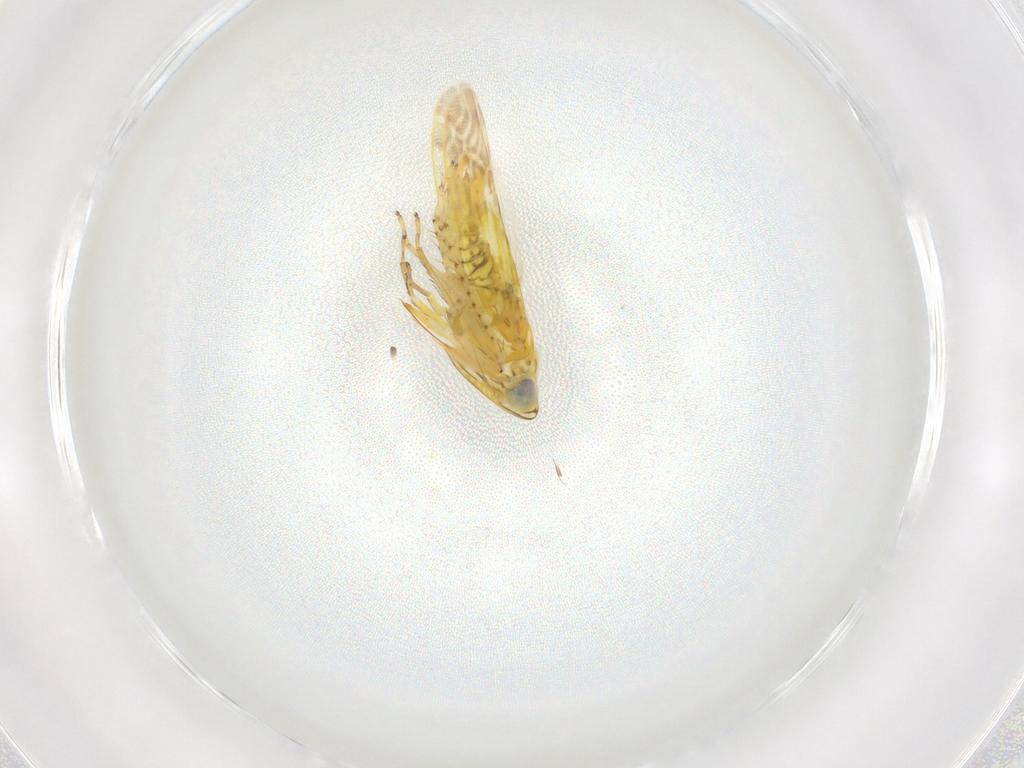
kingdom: Animalia
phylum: Arthropoda
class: Insecta
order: Hemiptera
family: Cicadellidae
